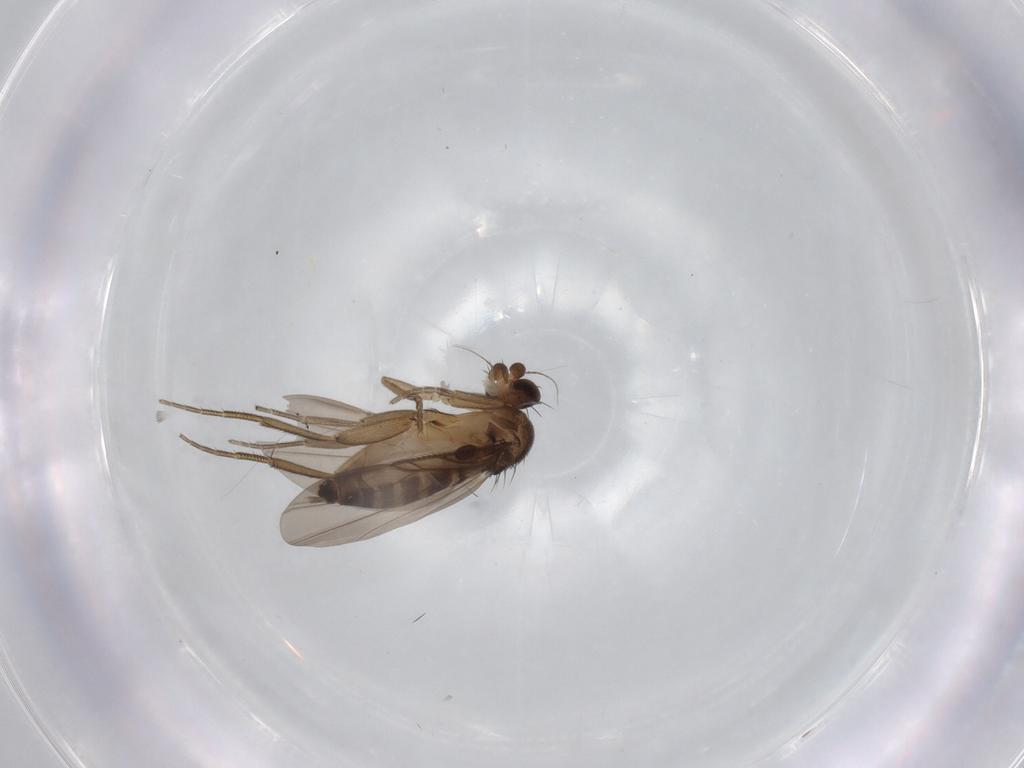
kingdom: Animalia
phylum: Arthropoda
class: Insecta
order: Diptera
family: Phoridae
